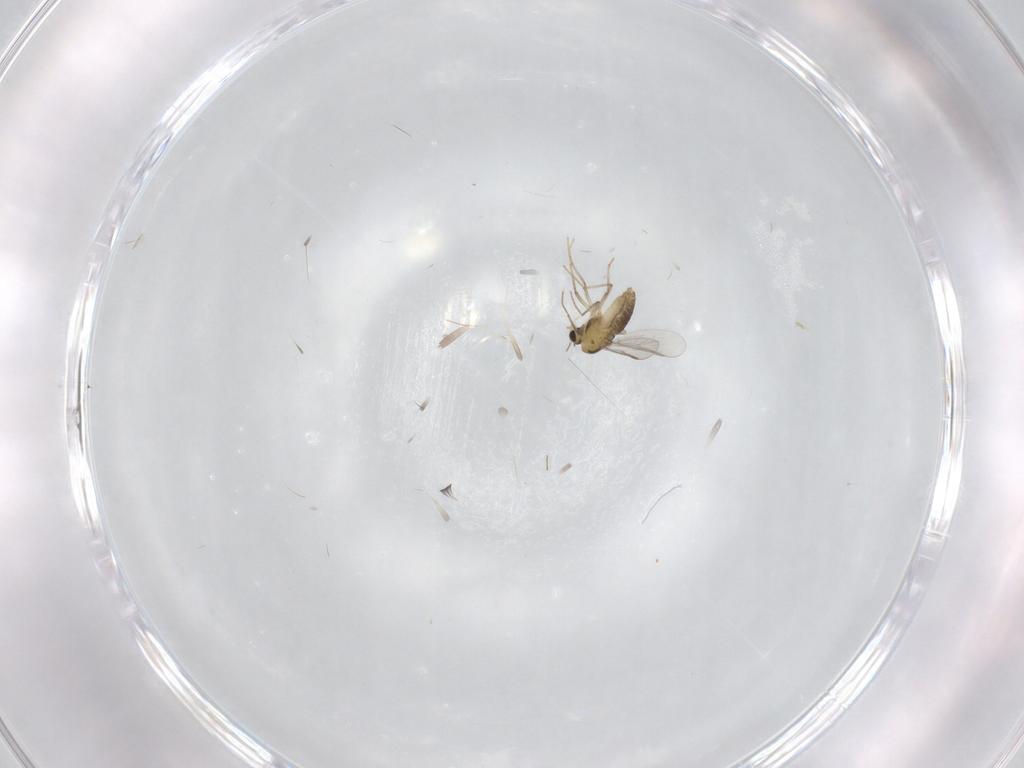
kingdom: Animalia
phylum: Arthropoda
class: Insecta
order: Diptera
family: Chironomidae
